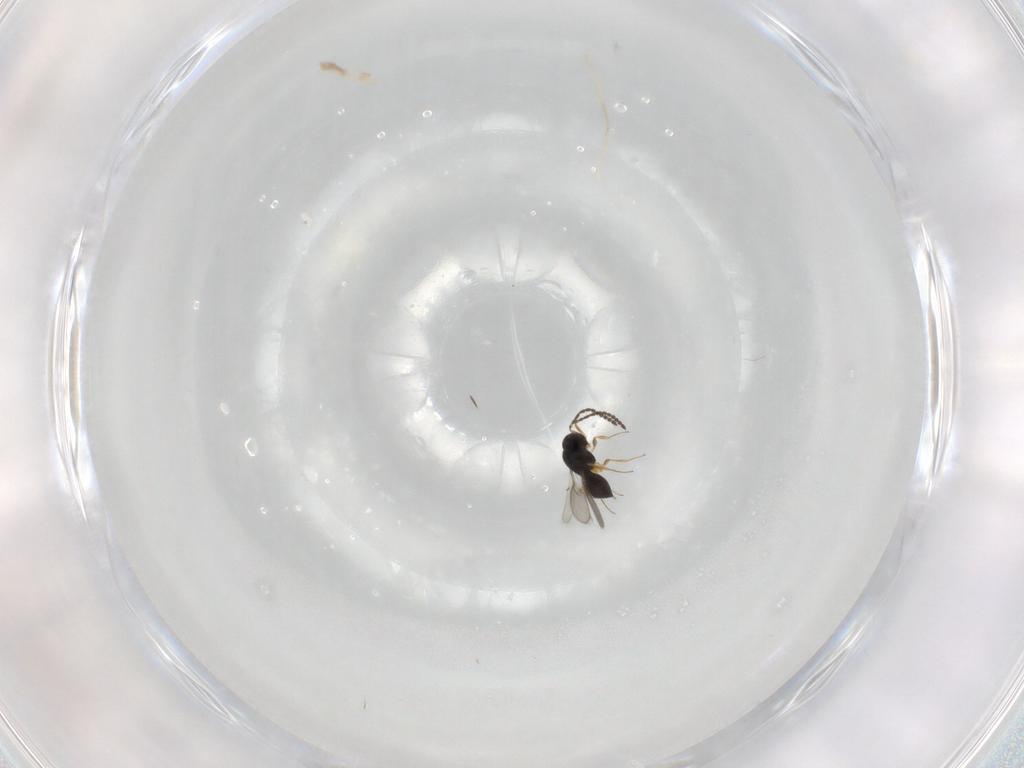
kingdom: Animalia
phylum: Arthropoda
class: Insecta
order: Hymenoptera
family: Scelionidae
